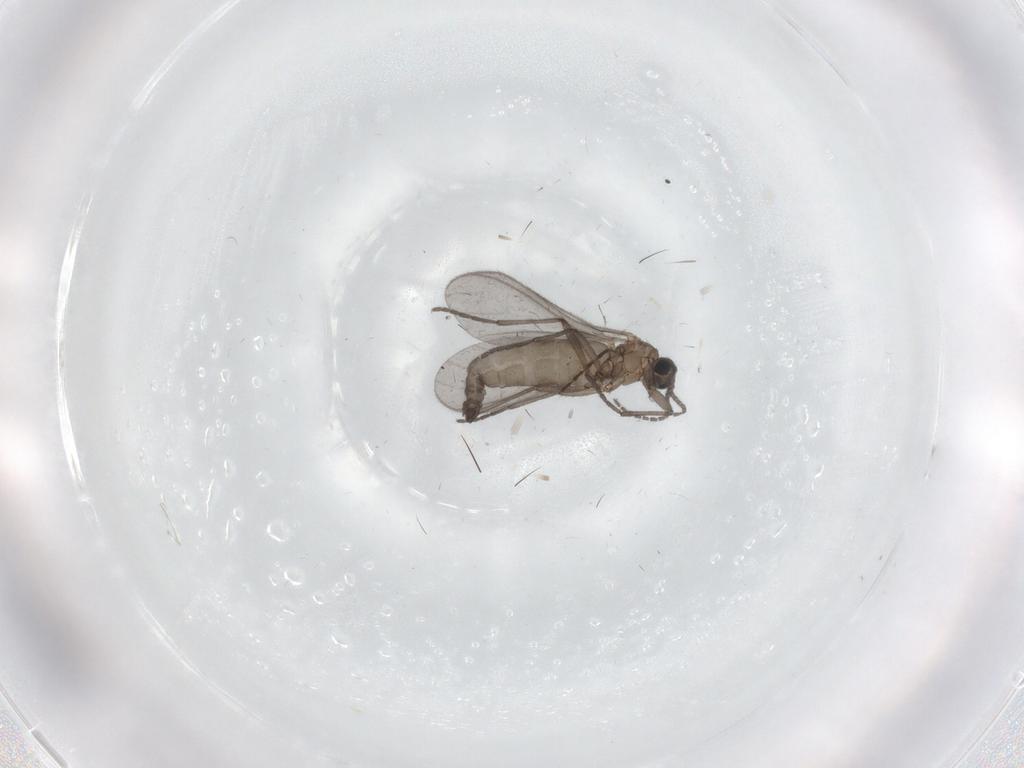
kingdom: Animalia
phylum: Arthropoda
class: Insecta
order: Diptera
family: Sciaridae
